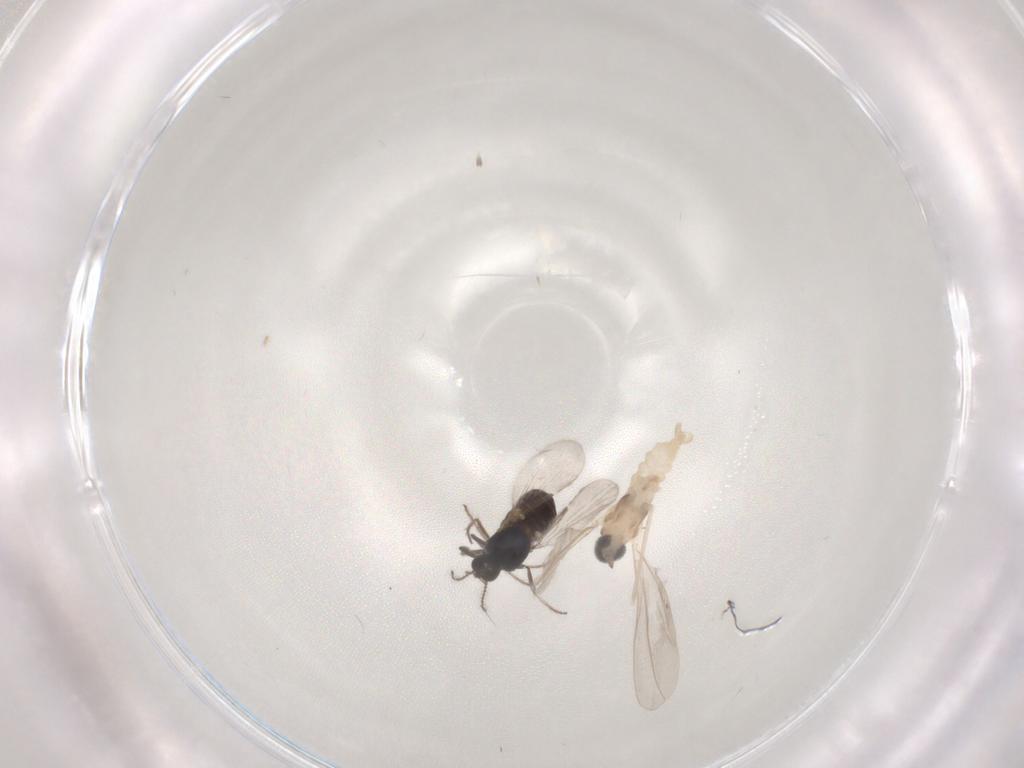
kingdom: Animalia
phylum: Arthropoda
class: Insecta
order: Diptera
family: Ceratopogonidae
